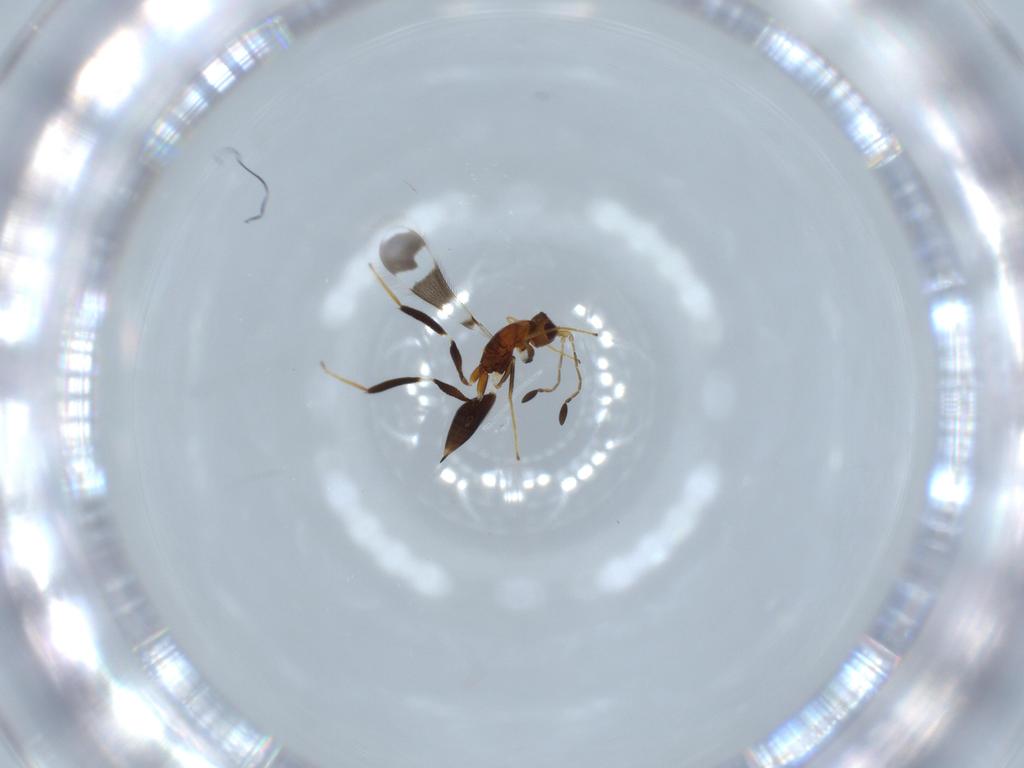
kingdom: Animalia
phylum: Arthropoda
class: Insecta
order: Hymenoptera
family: Mymaridae
